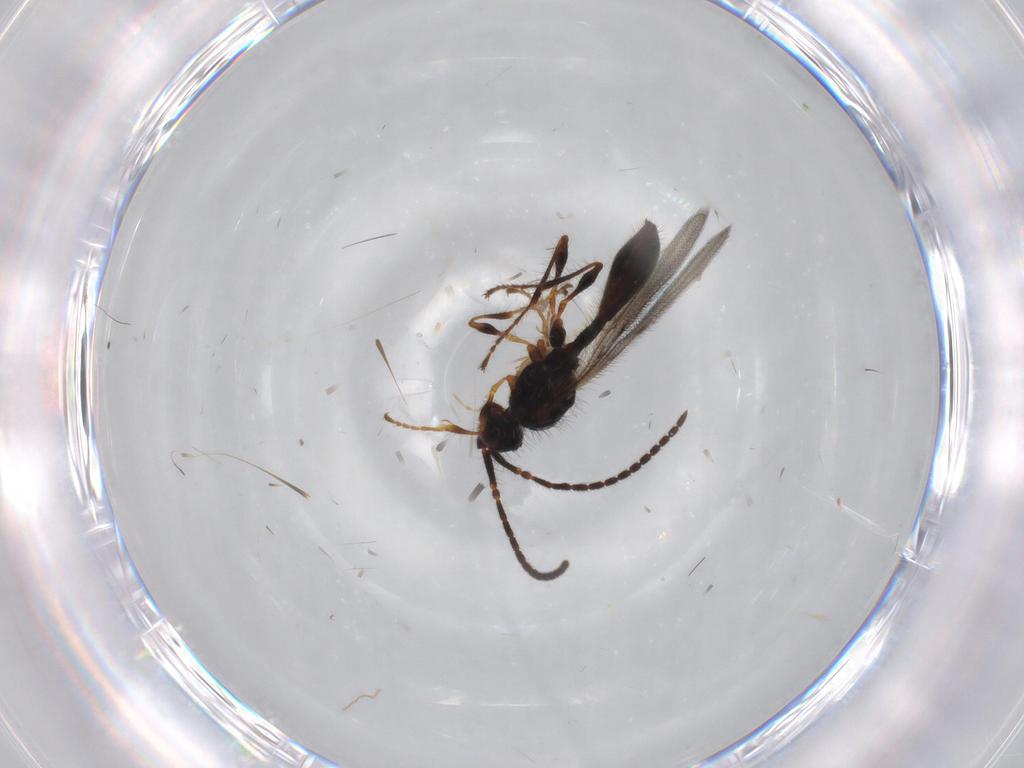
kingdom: Animalia
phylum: Arthropoda
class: Insecta
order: Hymenoptera
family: Diapriidae
